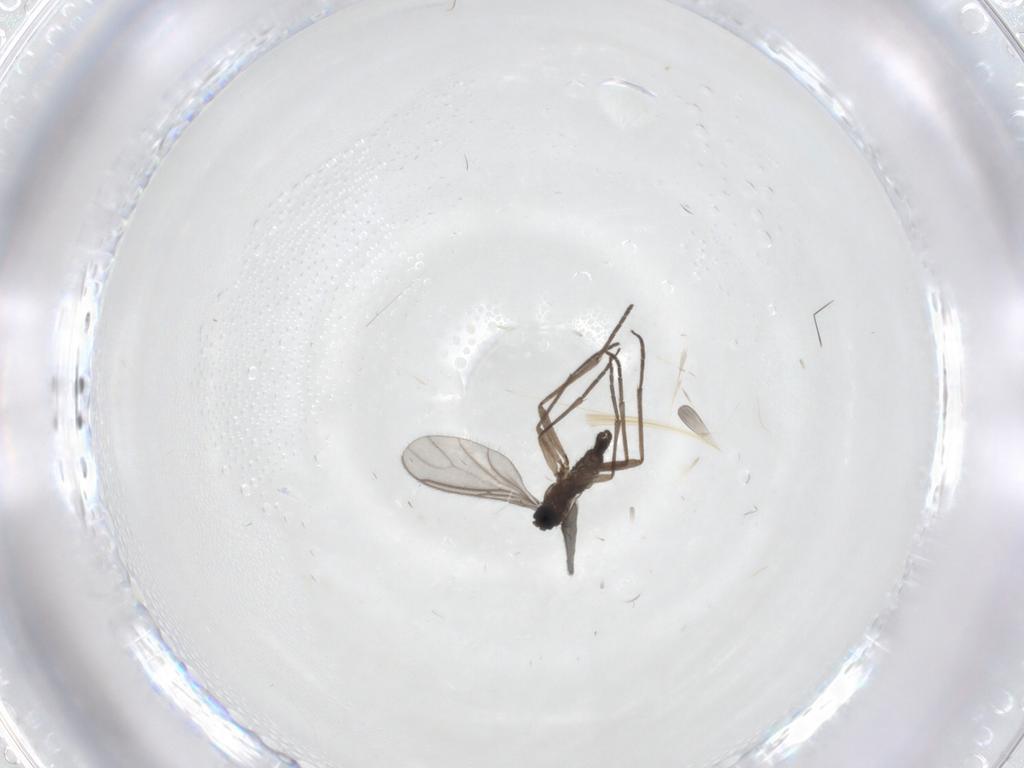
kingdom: Animalia
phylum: Arthropoda
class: Insecta
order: Diptera
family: Sciaridae
